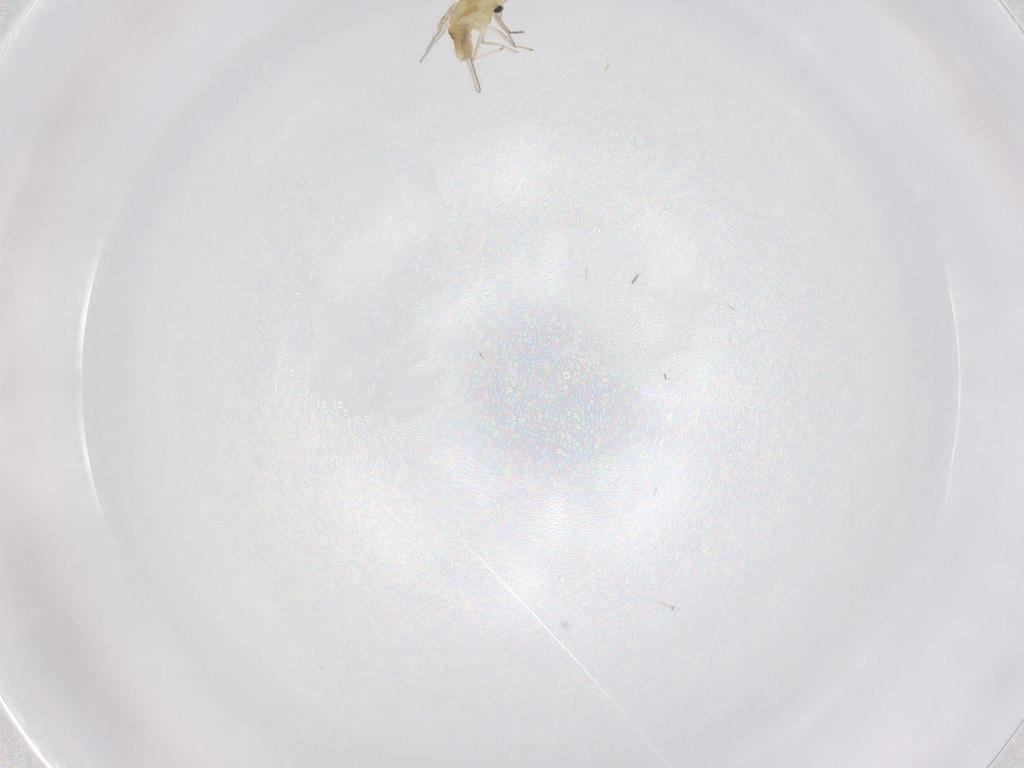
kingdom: Animalia
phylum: Arthropoda
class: Insecta
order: Diptera
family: Chironomidae
